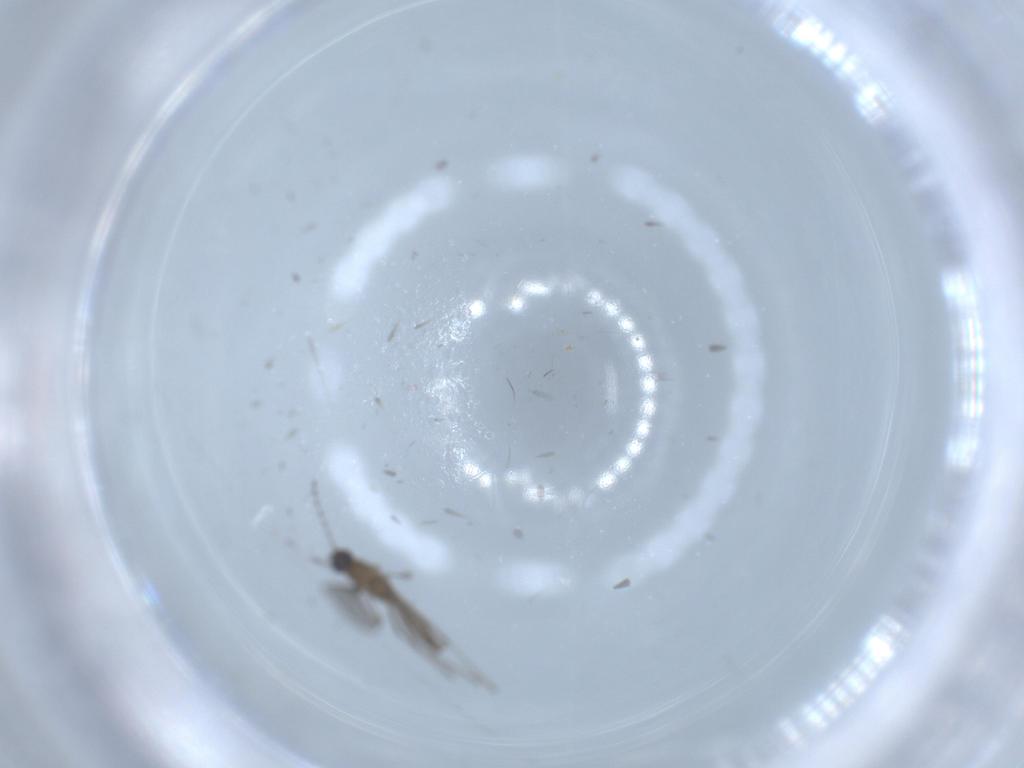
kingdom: Animalia
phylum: Arthropoda
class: Insecta
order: Diptera
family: Cecidomyiidae
